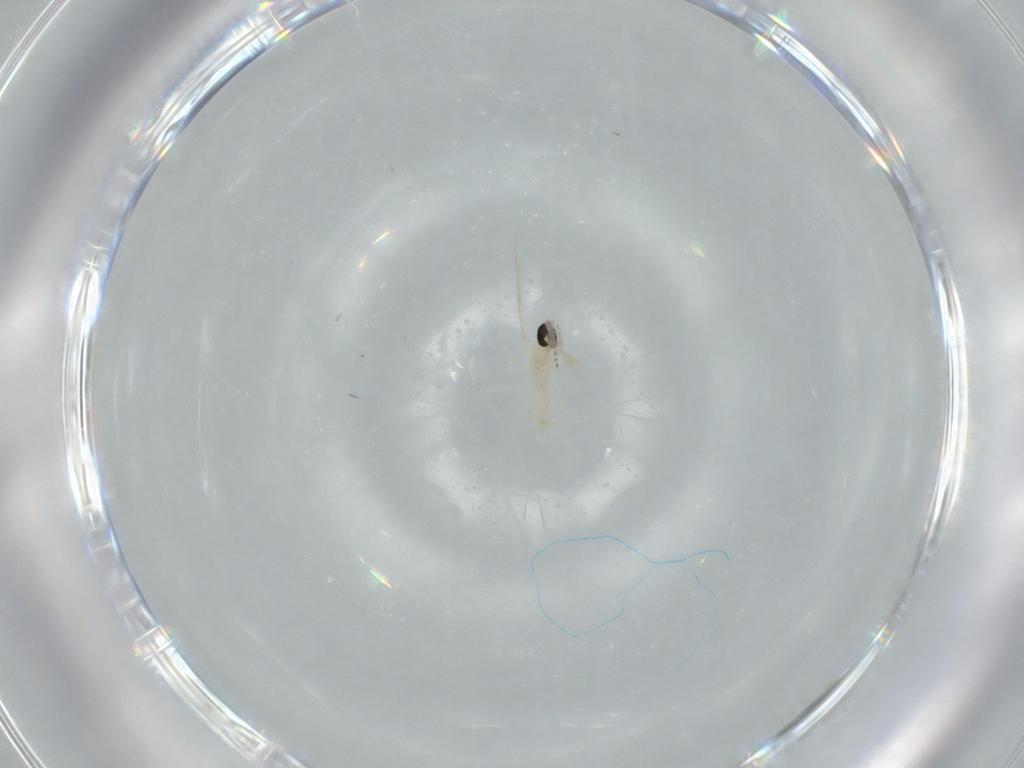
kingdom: Animalia
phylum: Arthropoda
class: Insecta
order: Diptera
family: Cecidomyiidae
